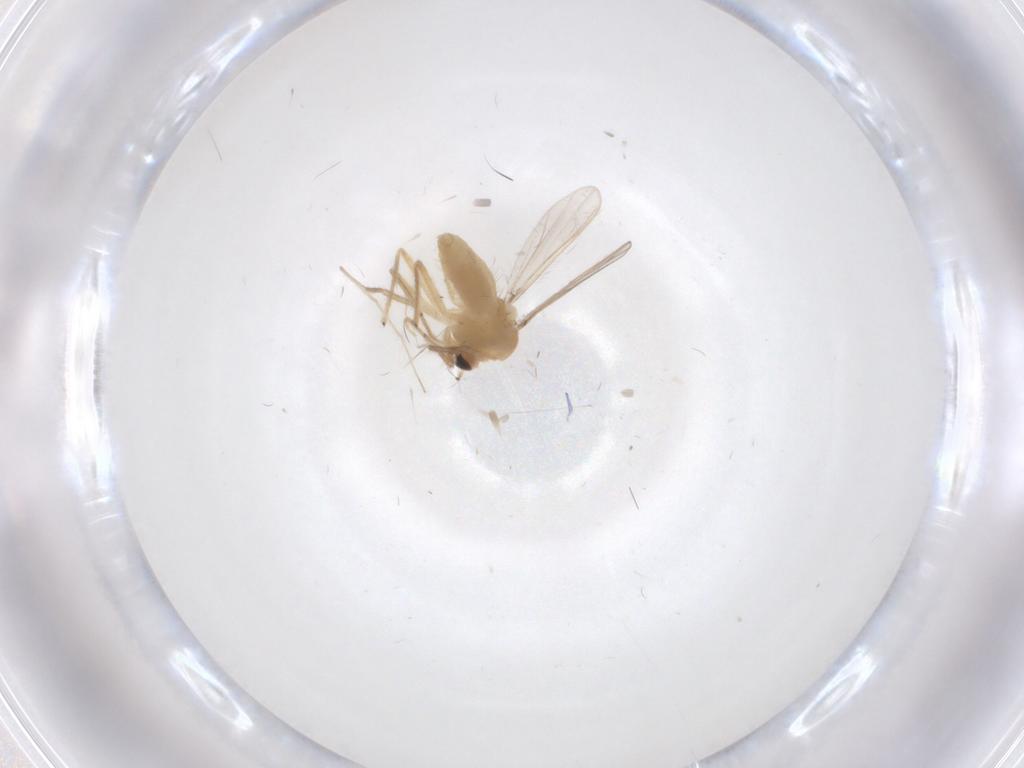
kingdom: Animalia
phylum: Arthropoda
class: Insecta
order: Diptera
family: Chironomidae
